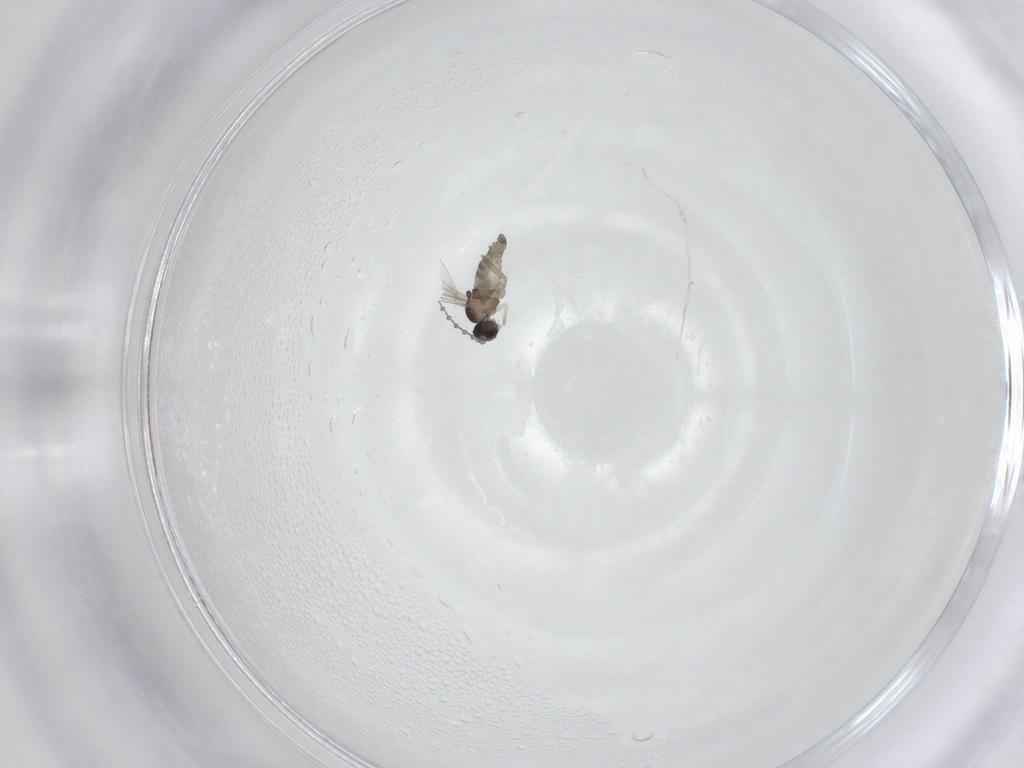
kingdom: Animalia
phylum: Arthropoda
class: Insecta
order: Diptera
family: Cecidomyiidae
